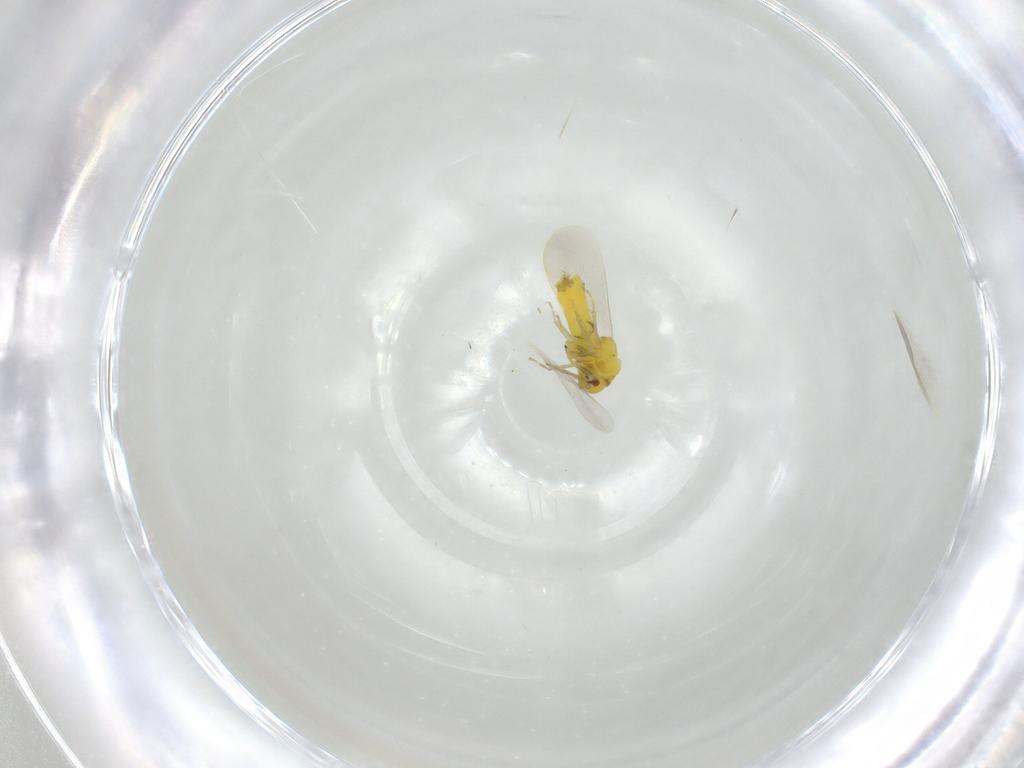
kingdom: Animalia
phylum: Arthropoda
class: Insecta
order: Hemiptera
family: Aleyrodidae
